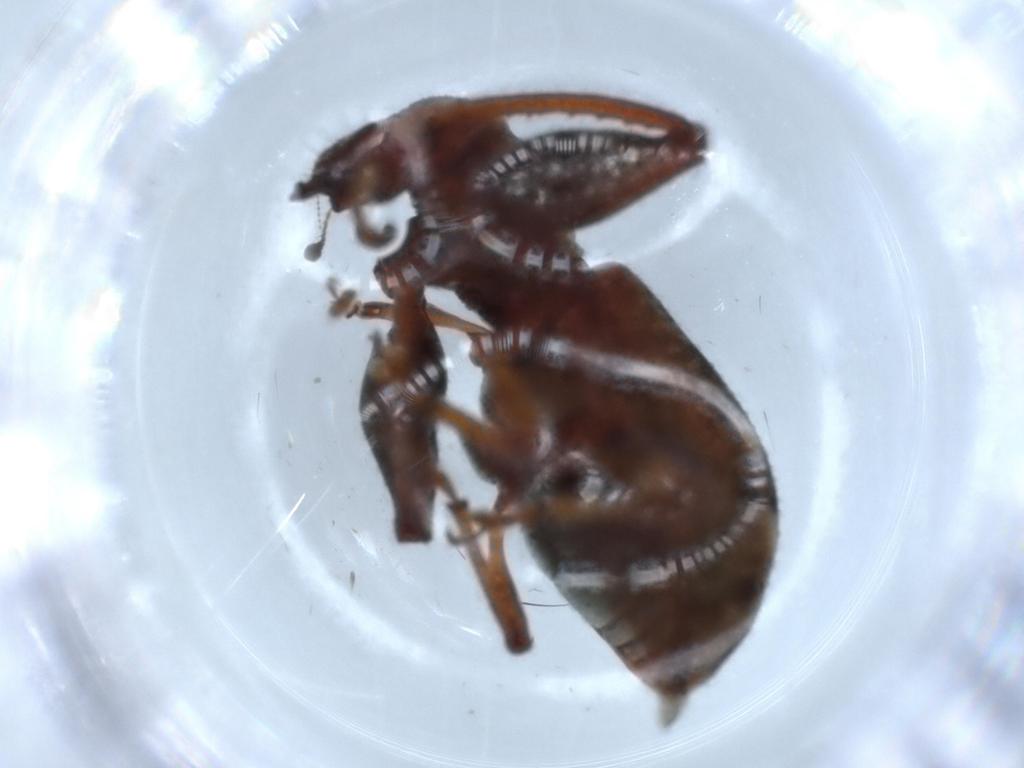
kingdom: Animalia
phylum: Arthropoda
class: Insecta
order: Coleoptera
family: Curculionidae
